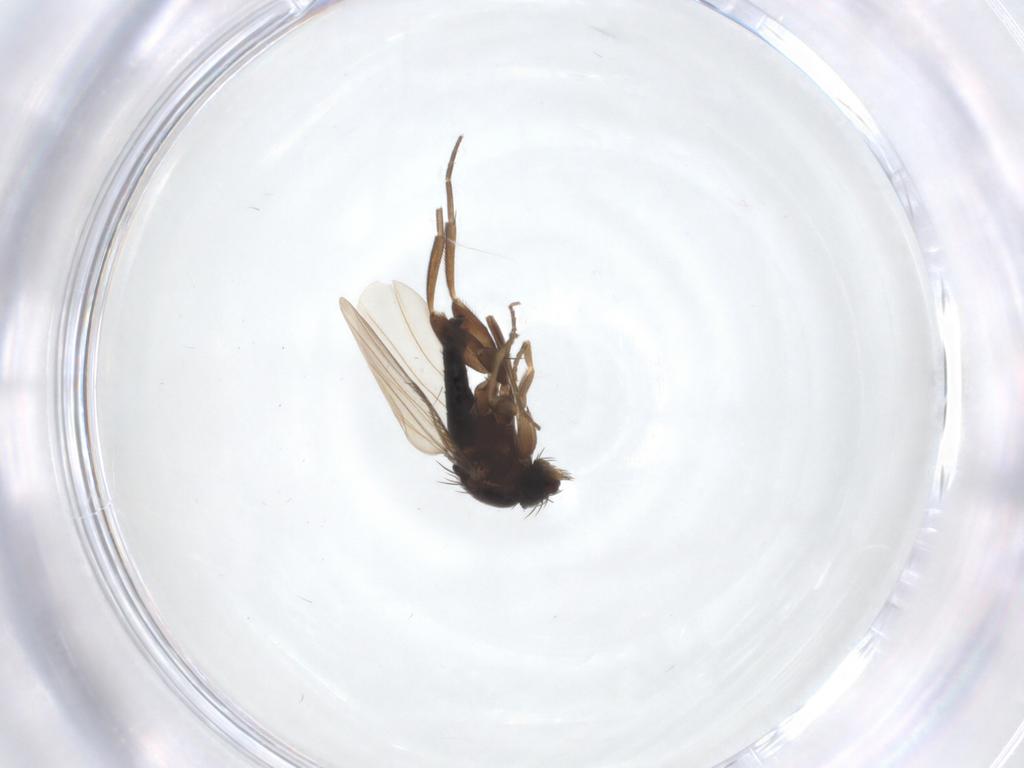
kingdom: Animalia
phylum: Arthropoda
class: Insecta
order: Diptera
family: Phoridae
